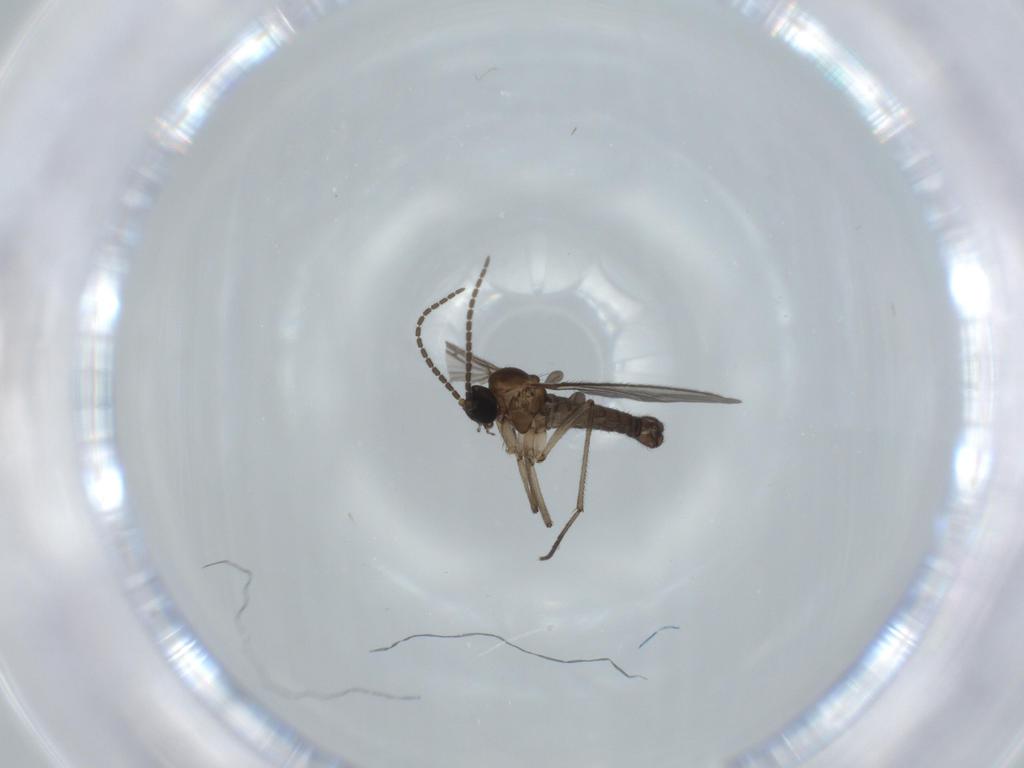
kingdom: Animalia
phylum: Arthropoda
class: Insecta
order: Diptera
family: Sciaridae
